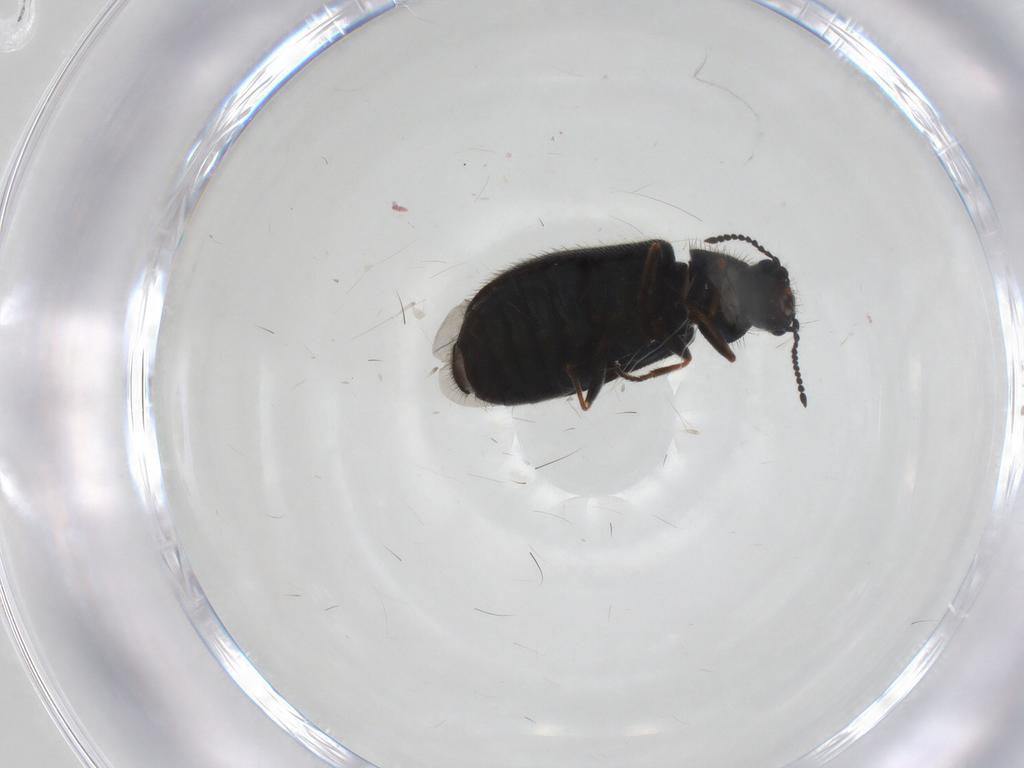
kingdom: Animalia
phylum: Arthropoda
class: Insecta
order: Coleoptera
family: Melyridae
